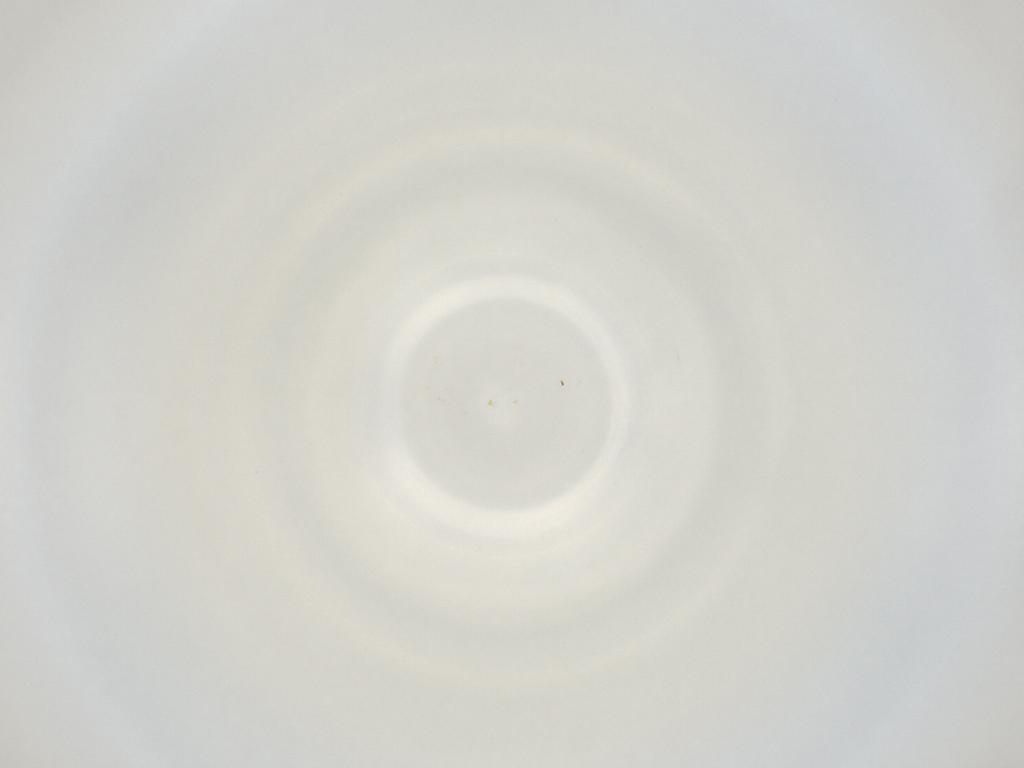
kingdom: Animalia
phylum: Arthropoda
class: Insecta
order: Diptera
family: Cecidomyiidae
